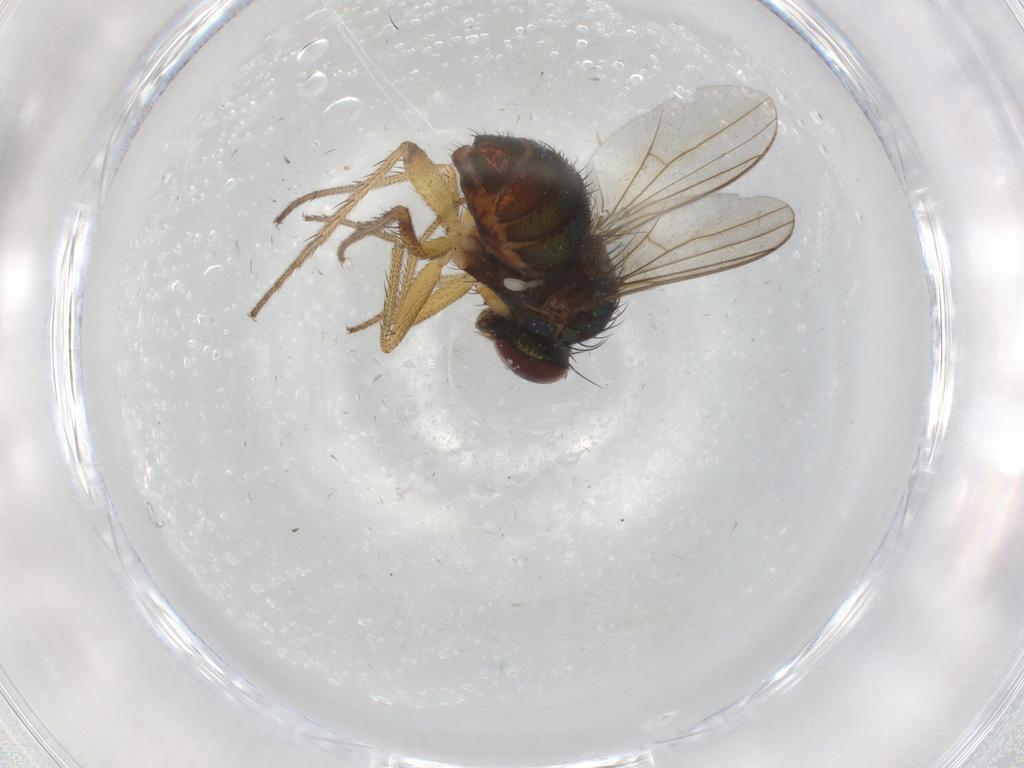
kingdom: Animalia
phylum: Arthropoda
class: Insecta
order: Diptera
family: Dolichopodidae
